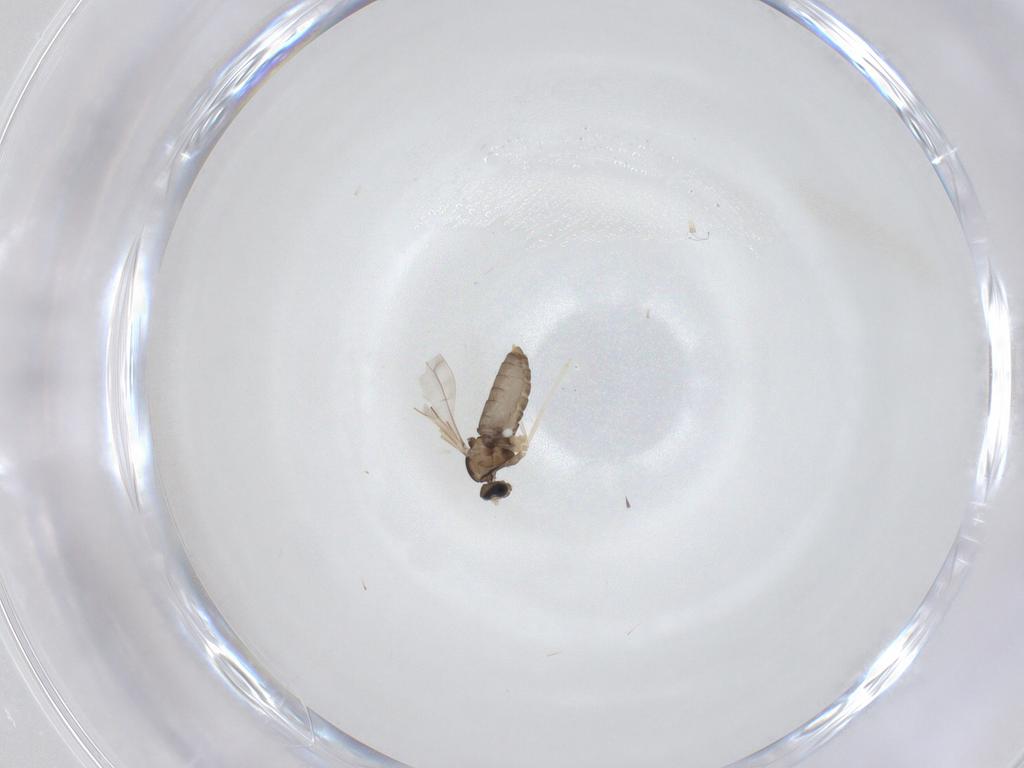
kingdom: Animalia
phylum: Arthropoda
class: Insecta
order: Diptera
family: Cecidomyiidae
